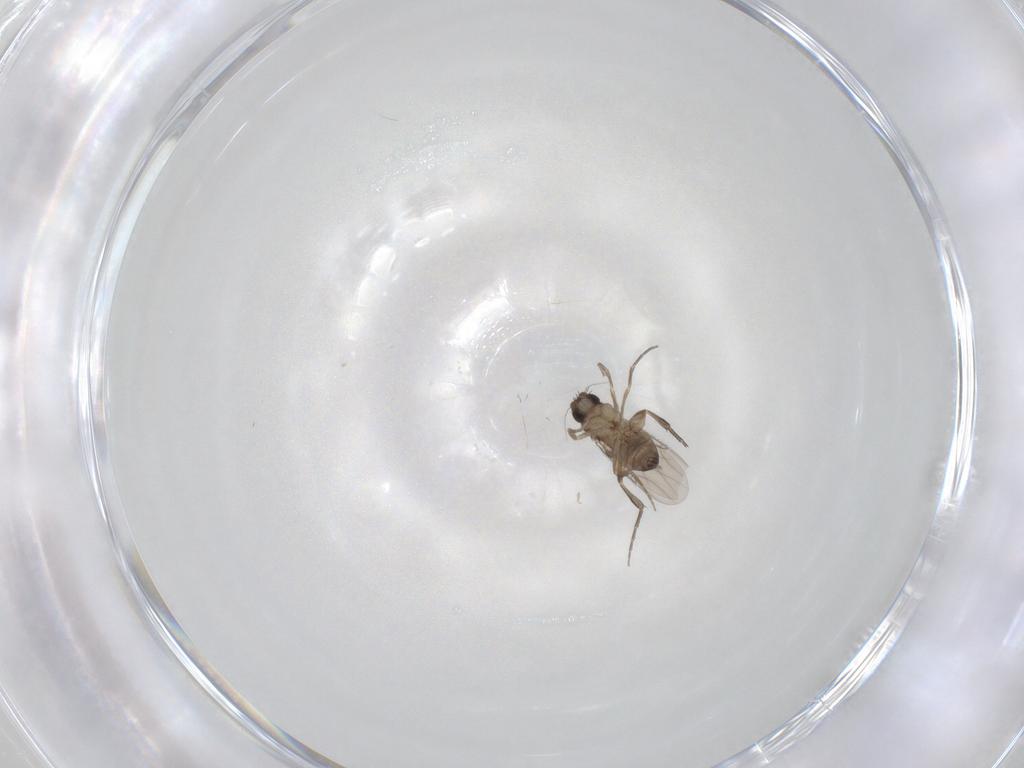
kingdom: Animalia
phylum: Arthropoda
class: Insecta
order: Diptera
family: Phoridae
